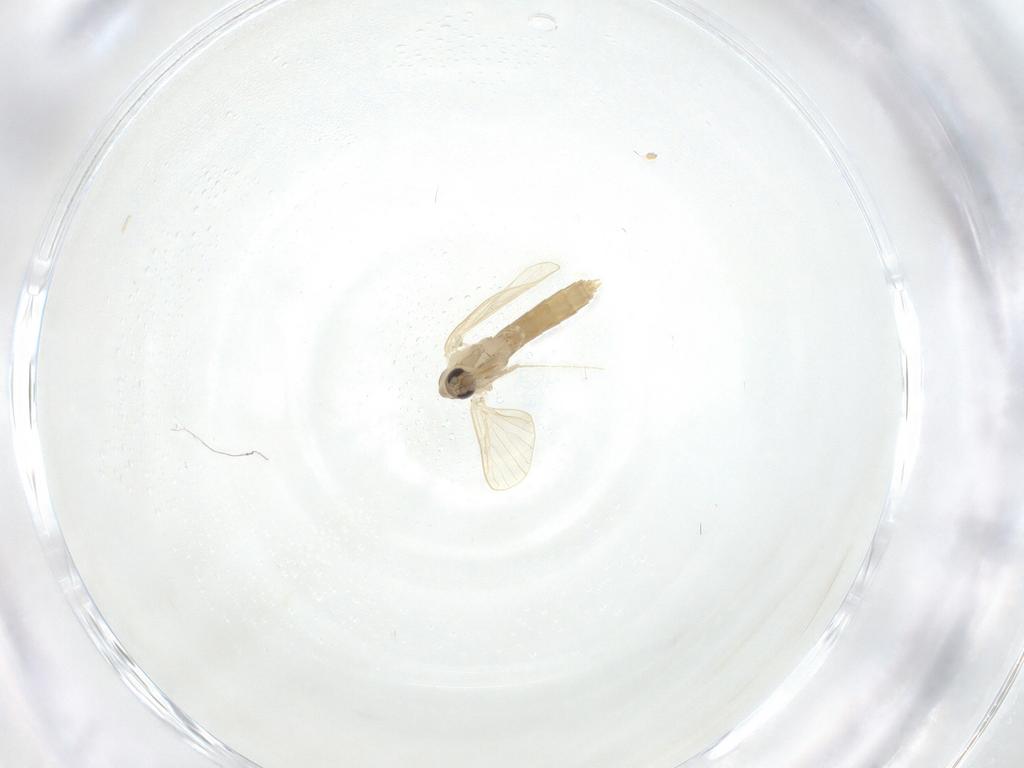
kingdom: Animalia
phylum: Arthropoda
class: Insecta
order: Diptera
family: Psychodidae
